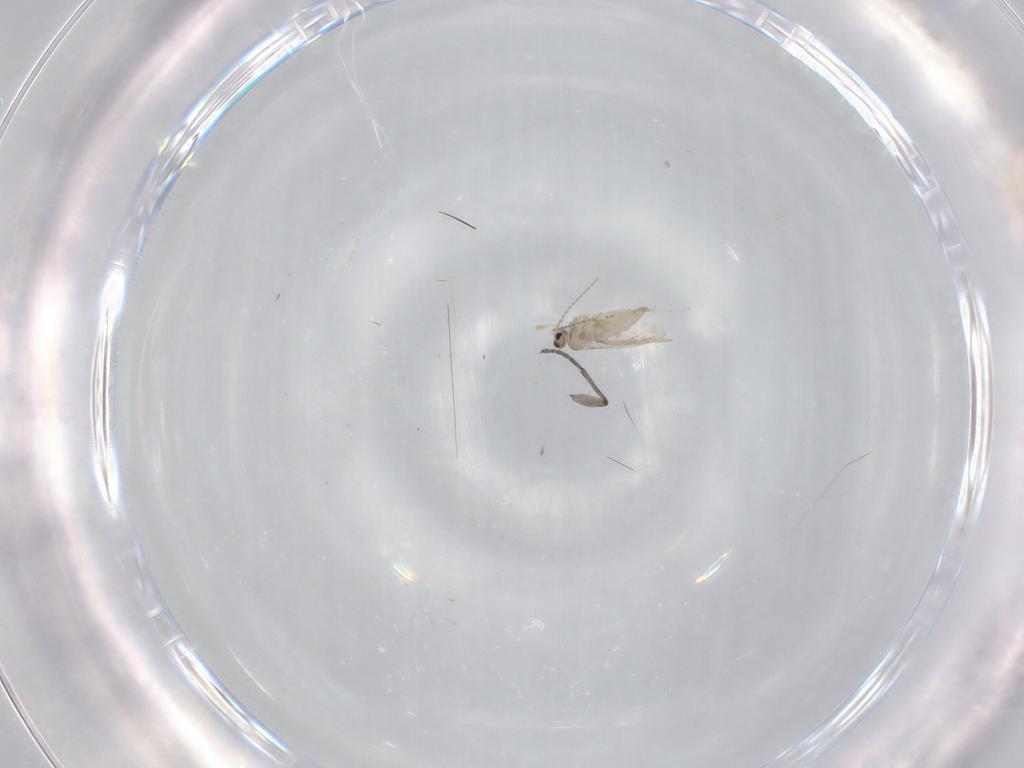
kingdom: Animalia
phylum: Arthropoda
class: Insecta
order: Diptera
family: Cecidomyiidae
